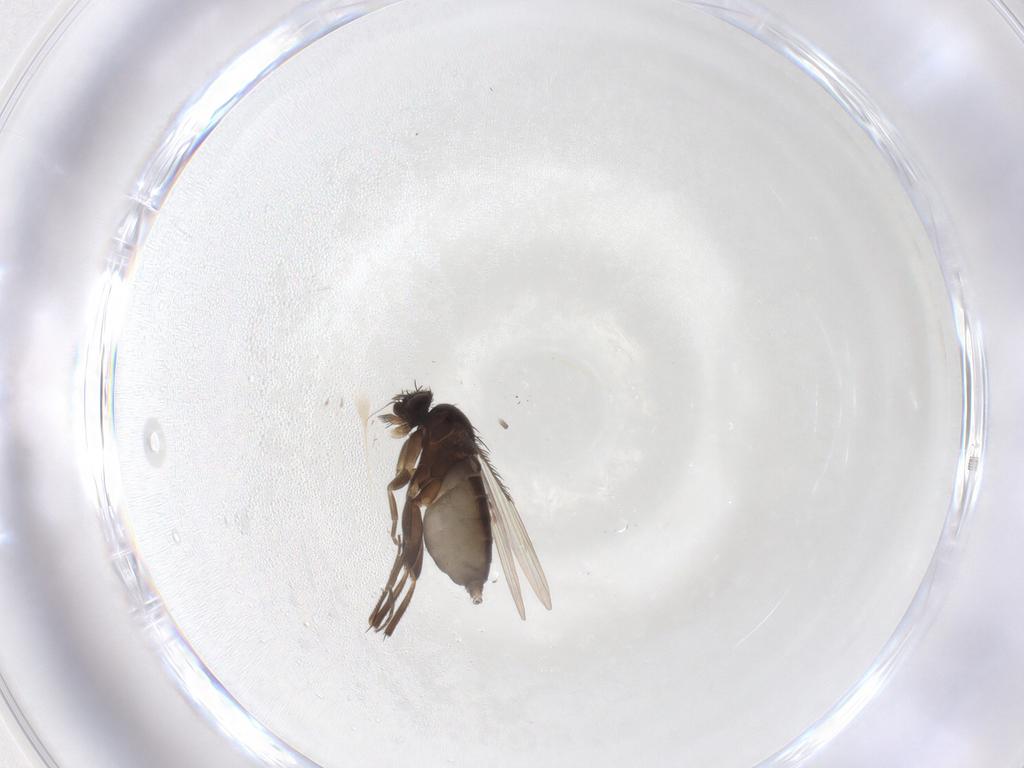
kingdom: Animalia
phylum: Arthropoda
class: Insecta
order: Diptera
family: Phoridae
